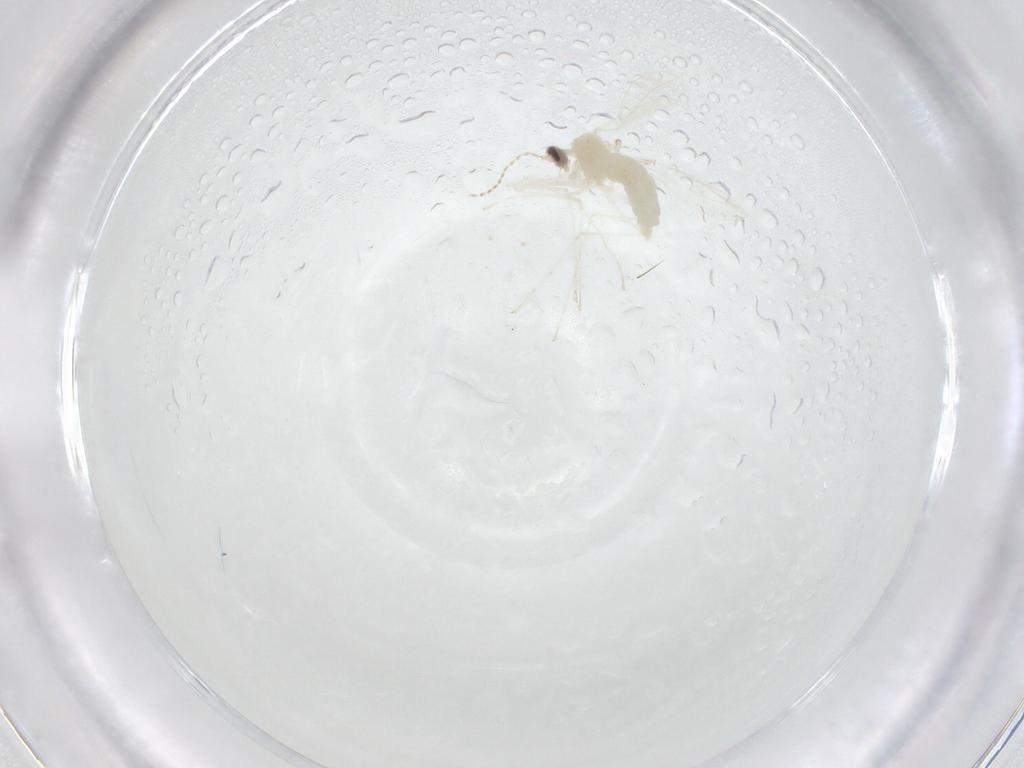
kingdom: Animalia
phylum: Arthropoda
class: Insecta
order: Diptera
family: Cecidomyiidae
